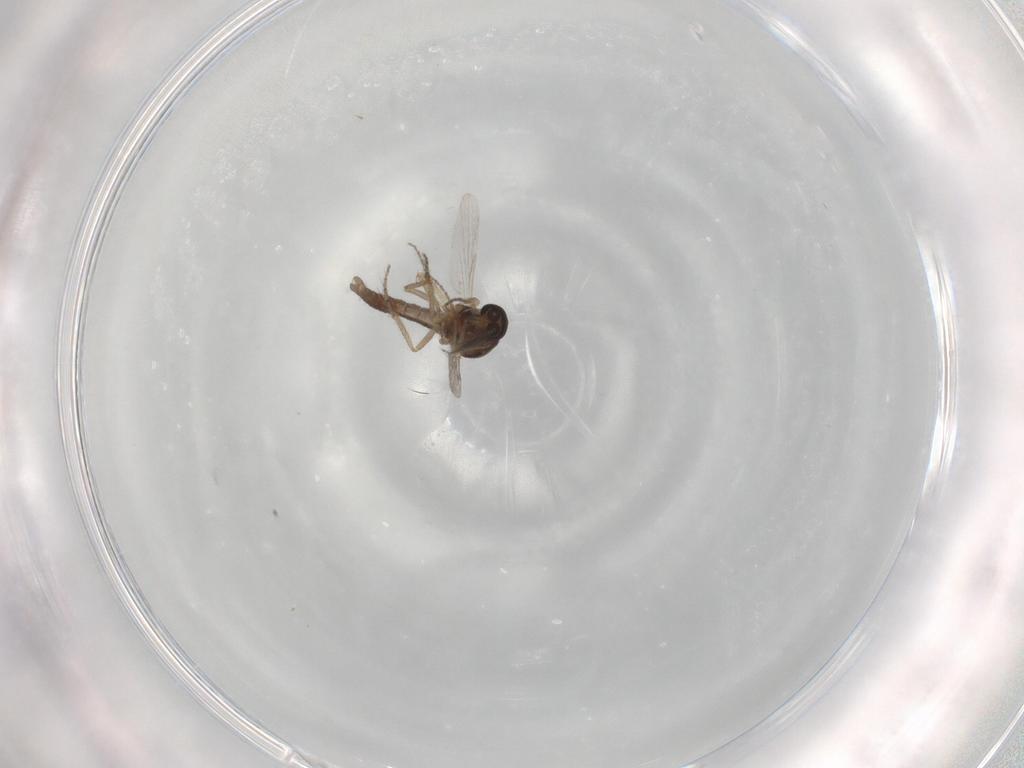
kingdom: Animalia
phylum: Arthropoda
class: Insecta
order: Diptera
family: Ceratopogonidae
